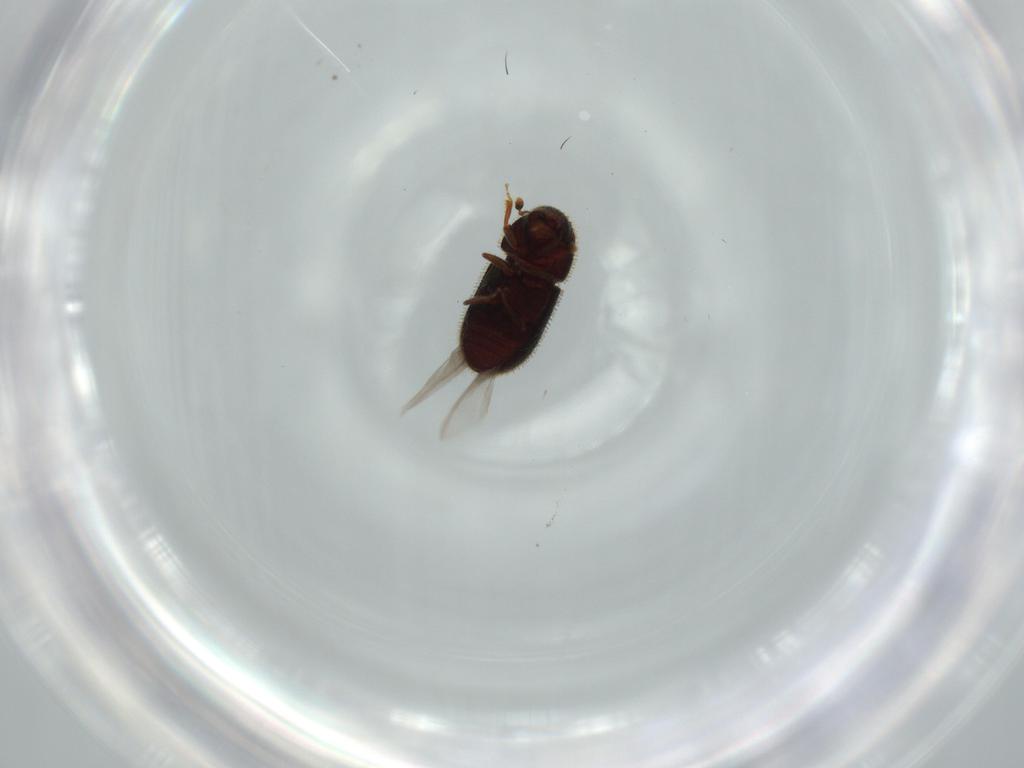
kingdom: Animalia
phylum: Arthropoda
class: Insecta
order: Coleoptera
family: Curculionidae
